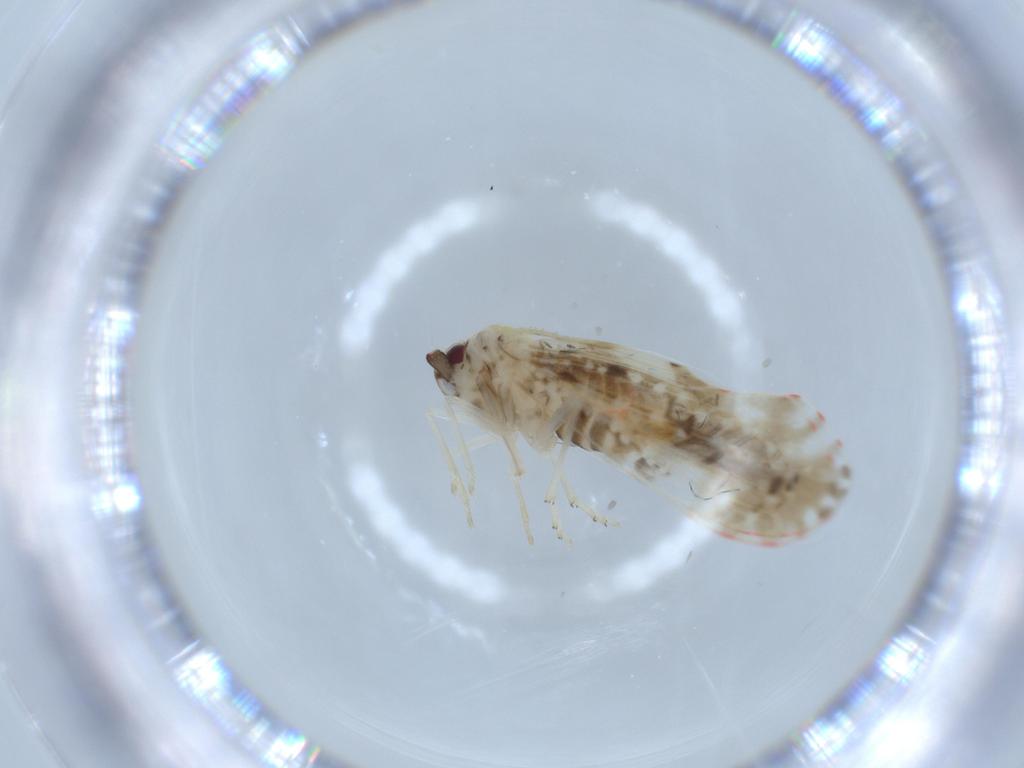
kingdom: Animalia
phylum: Arthropoda
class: Insecta
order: Hemiptera
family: Derbidae
